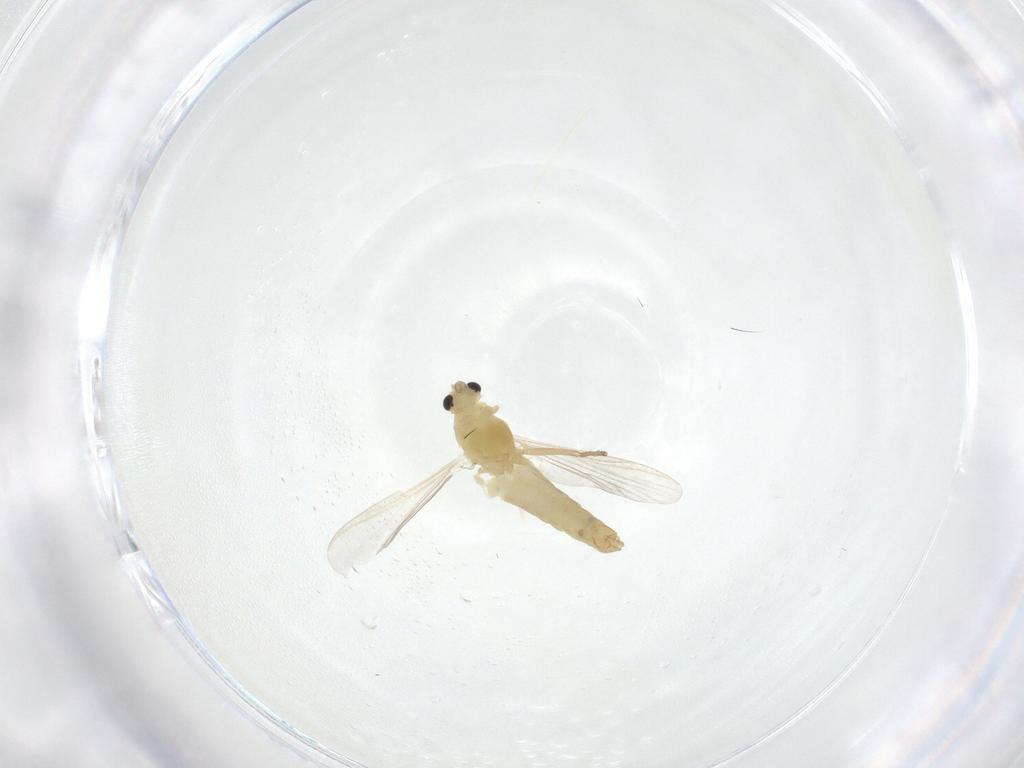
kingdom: Animalia
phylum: Arthropoda
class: Insecta
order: Diptera
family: Chironomidae
